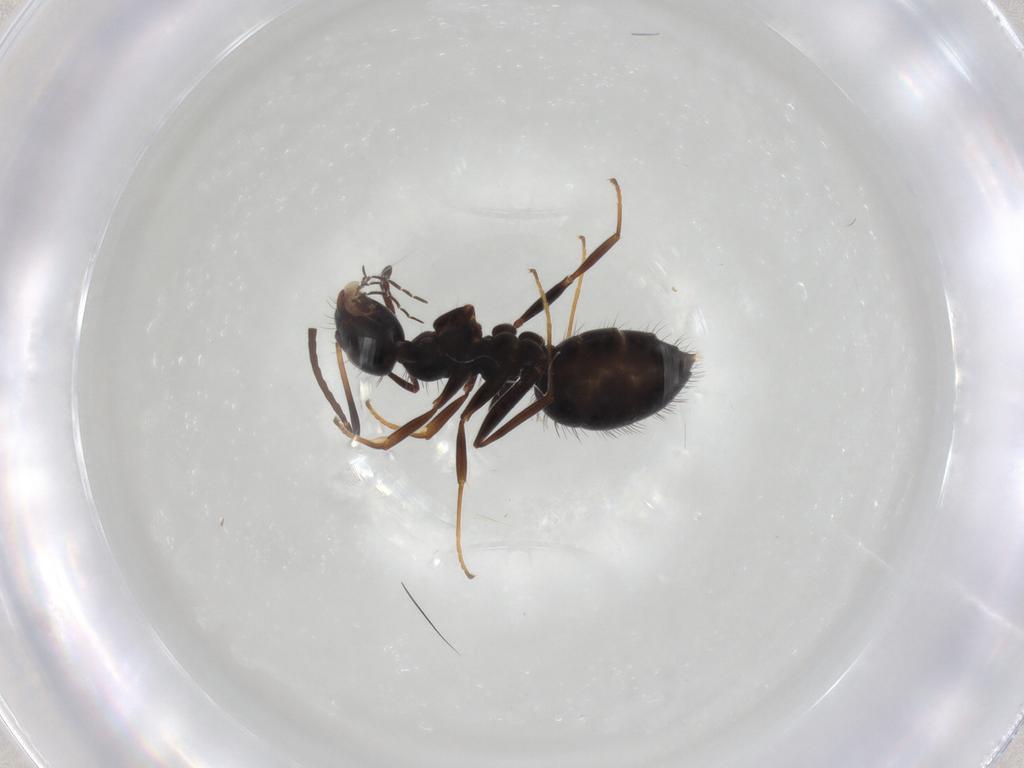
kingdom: Animalia
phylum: Arthropoda
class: Insecta
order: Hymenoptera
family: Formicidae
